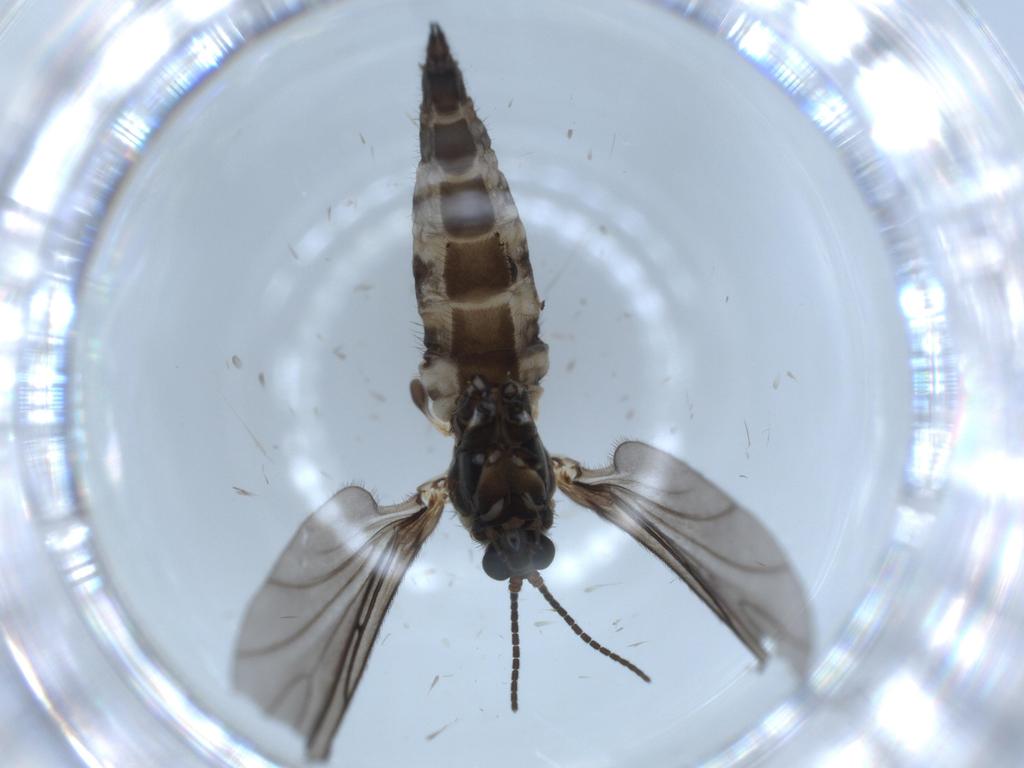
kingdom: Animalia
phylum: Arthropoda
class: Insecta
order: Diptera
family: Sciaridae
